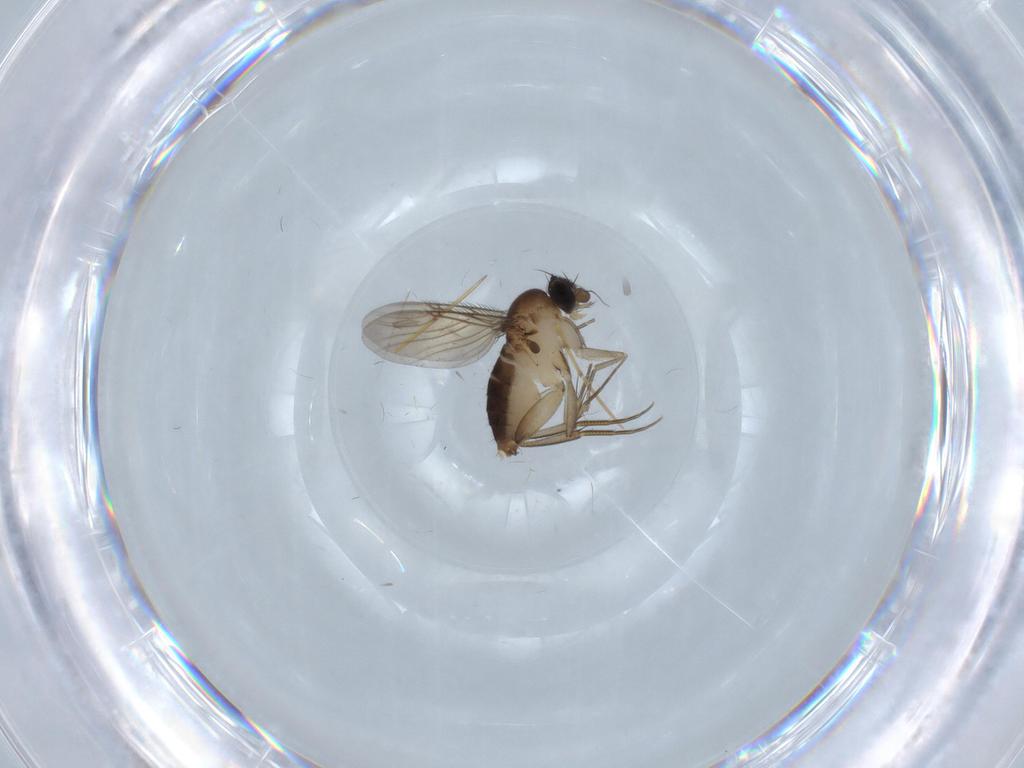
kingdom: Animalia
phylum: Arthropoda
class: Insecta
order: Diptera
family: Phoridae
